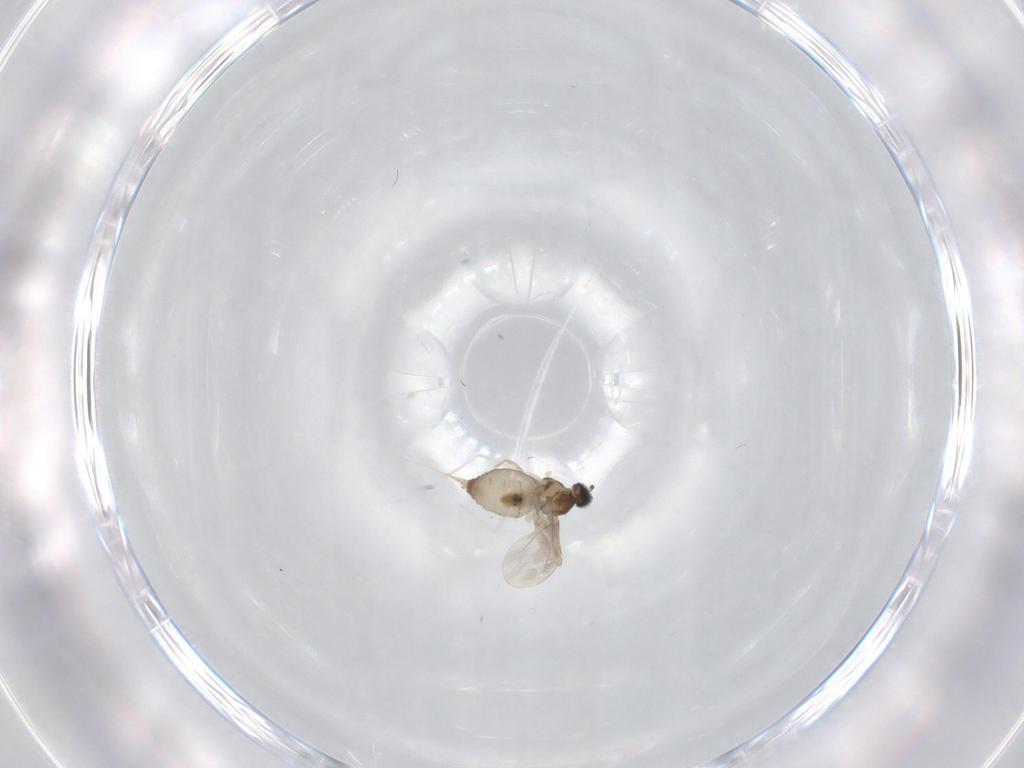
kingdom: Animalia
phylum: Arthropoda
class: Insecta
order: Diptera
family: Cecidomyiidae
